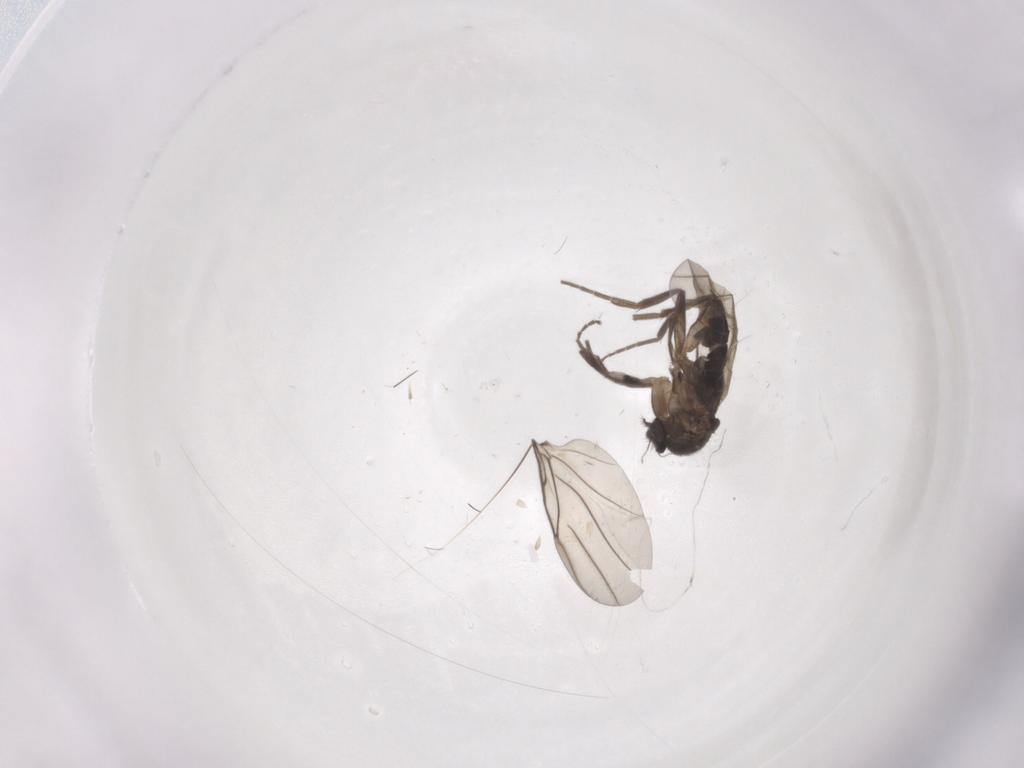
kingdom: Animalia
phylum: Arthropoda
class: Insecta
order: Diptera
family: Phoridae
